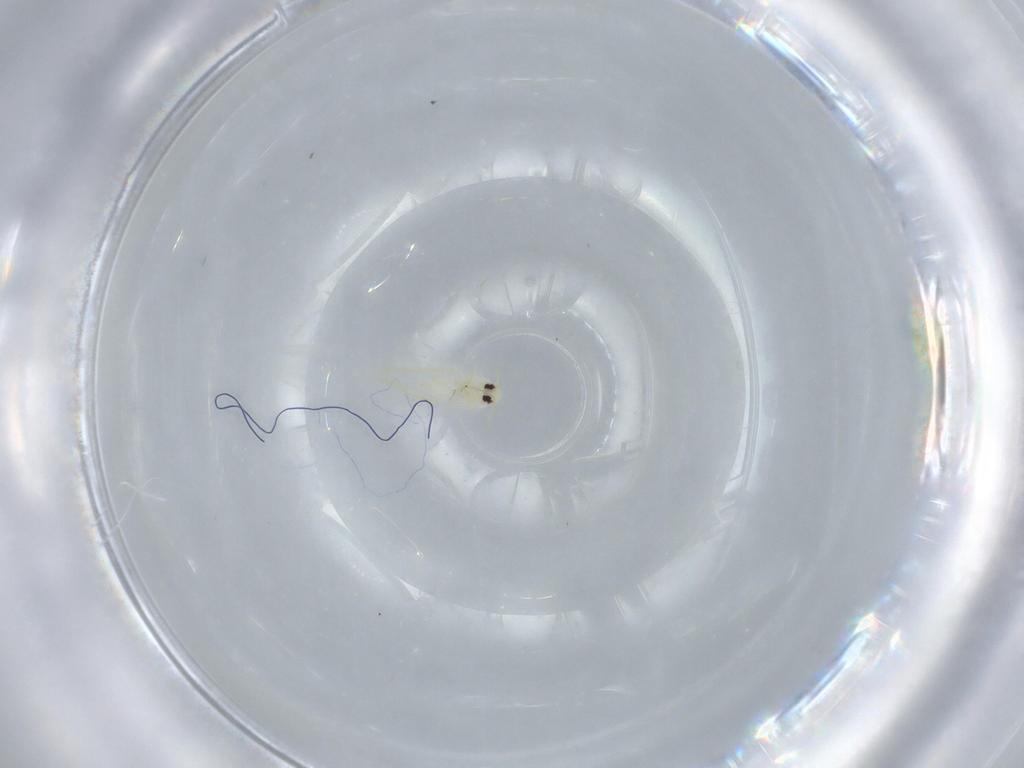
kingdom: Animalia
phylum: Arthropoda
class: Insecta
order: Hemiptera
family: Aleyrodidae
